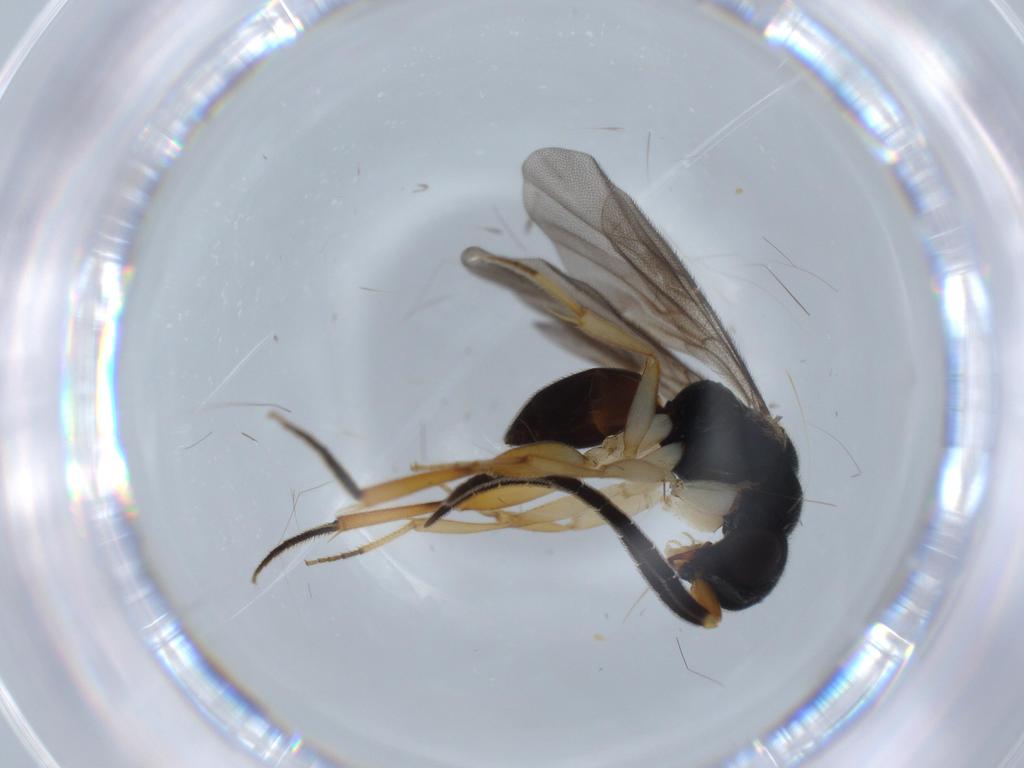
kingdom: Animalia
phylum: Arthropoda
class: Insecta
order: Hymenoptera
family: Chrysididae
